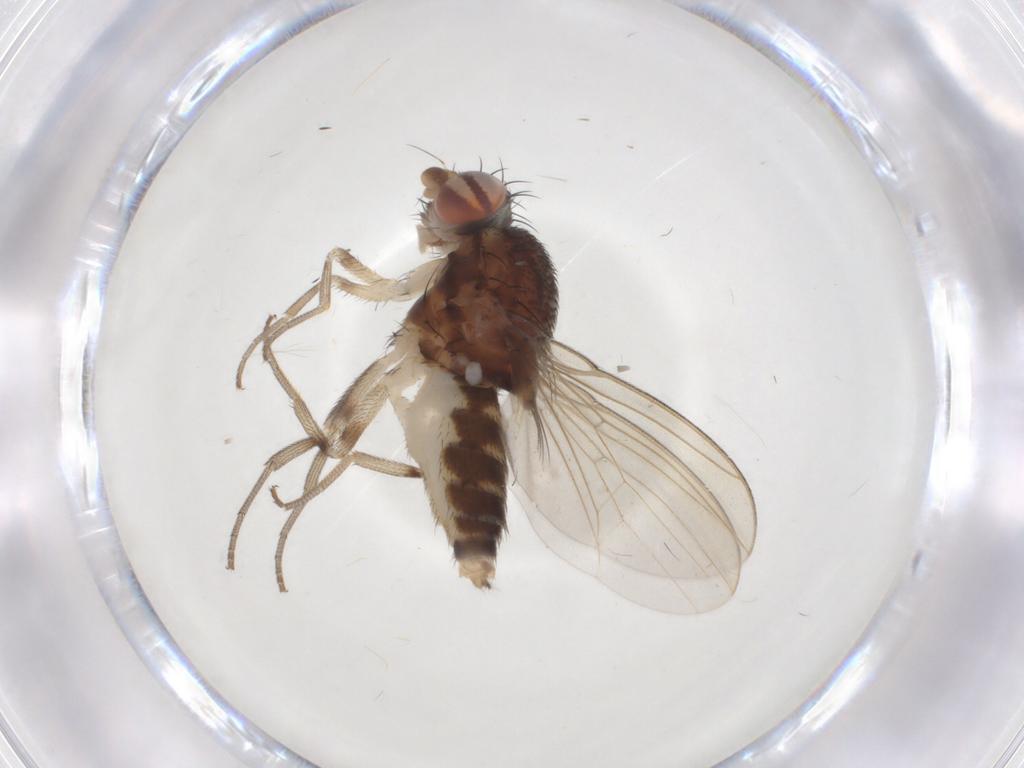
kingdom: Animalia
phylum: Arthropoda
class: Insecta
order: Diptera
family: Drosophilidae
